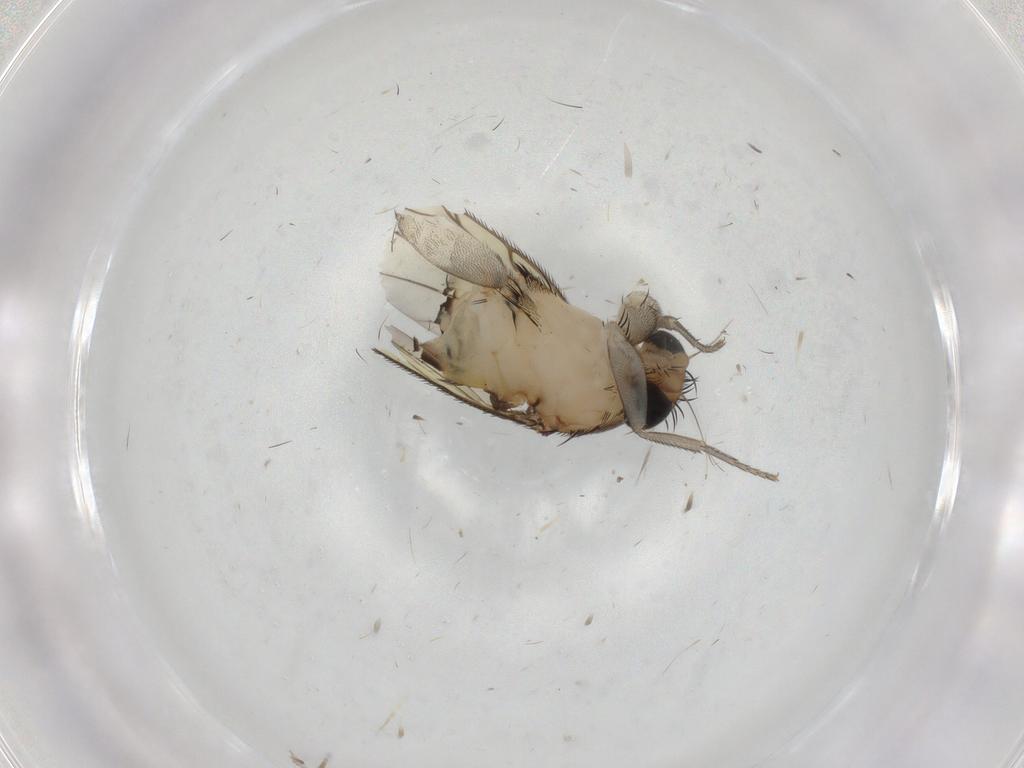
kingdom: Animalia
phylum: Arthropoda
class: Insecta
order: Diptera
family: Phoridae
